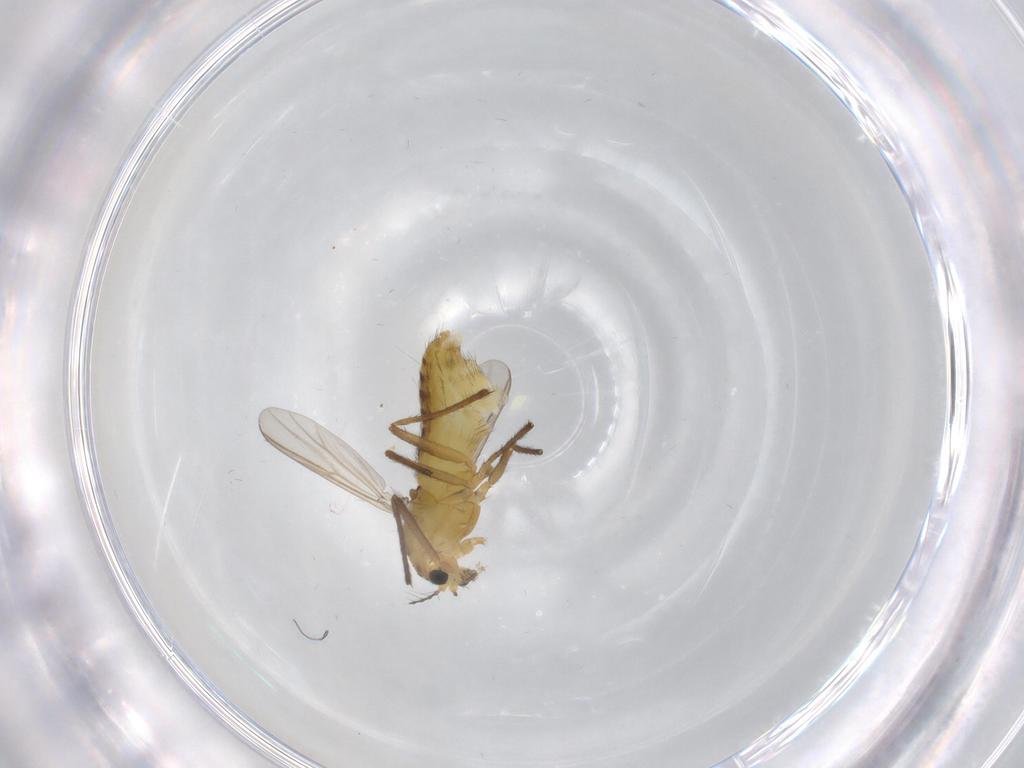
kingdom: Animalia
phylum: Arthropoda
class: Insecta
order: Diptera
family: Chironomidae
